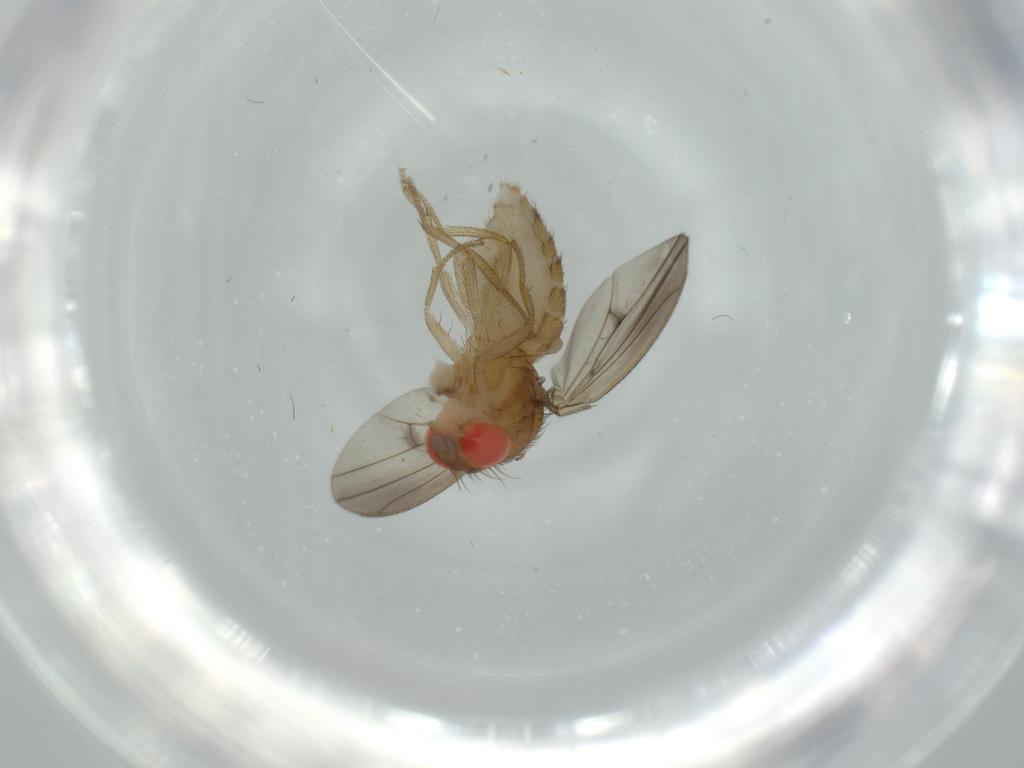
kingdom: Animalia
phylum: Arthropoda
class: Insecta
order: Diptera
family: Drosophilidae
